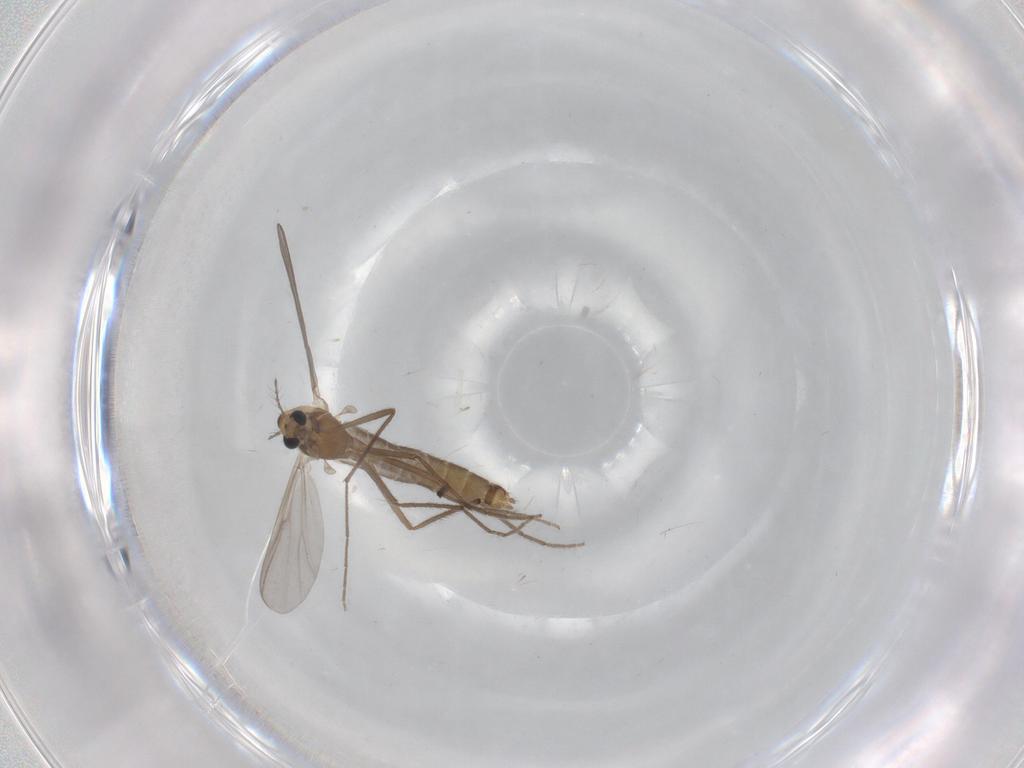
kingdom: Animalia
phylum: Arthropoda
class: Insecta
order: Diptera
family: Chironomidae
